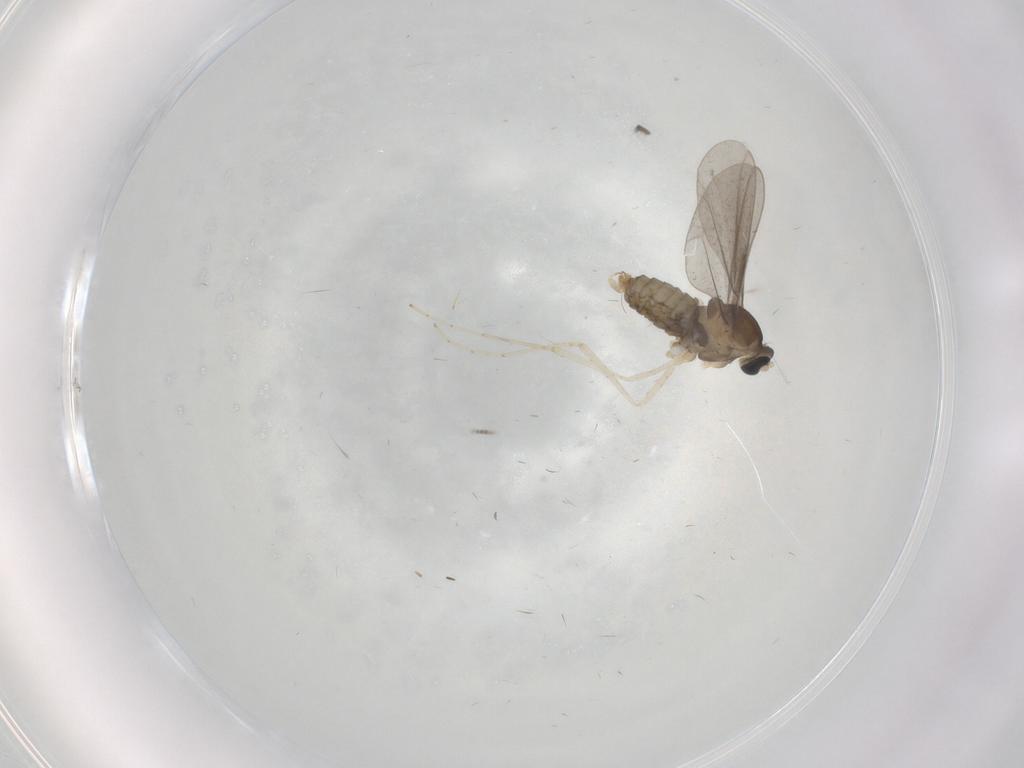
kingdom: Animalia
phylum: Arthropoda
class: Insecta
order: Diptera
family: Cecidomyiidae
